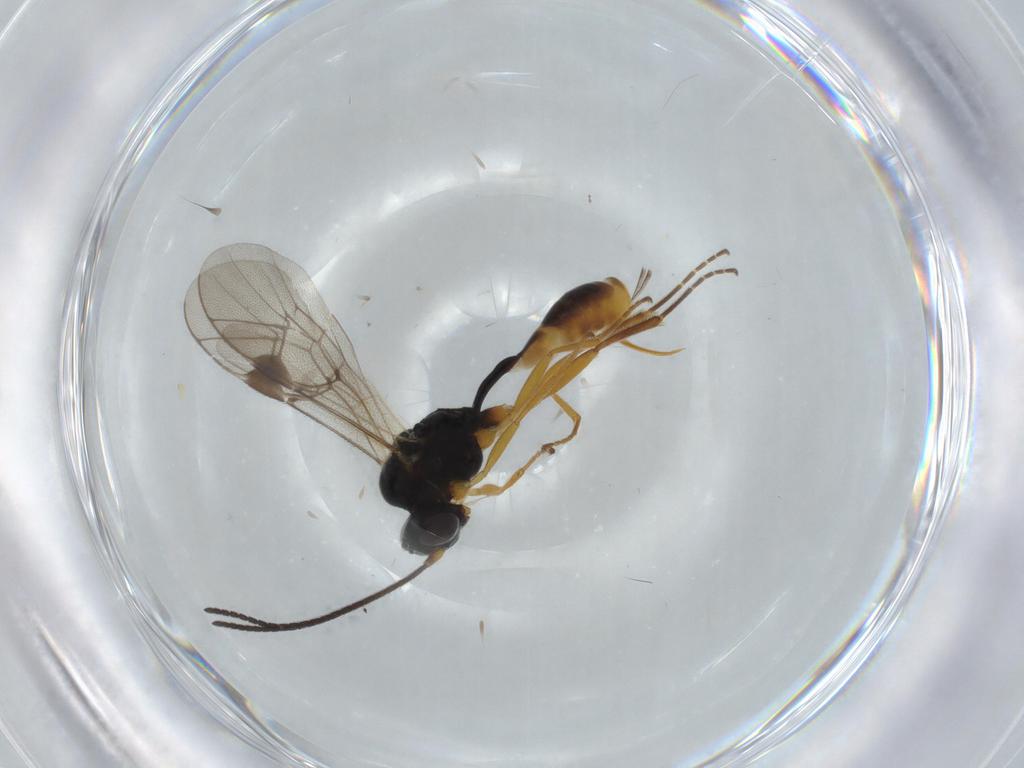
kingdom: Animalia
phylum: Arthropoda
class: Insecta
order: Hymenoptera
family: Ichneumonidae
